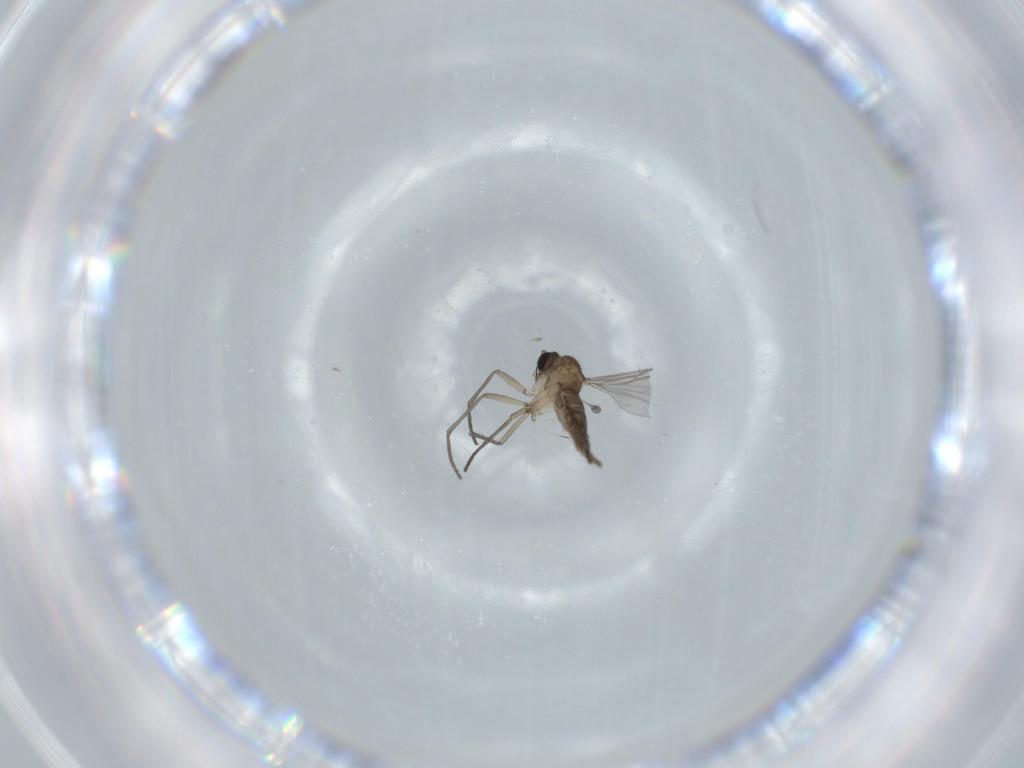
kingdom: Animalia
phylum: Arthropoda
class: Insecta
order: Diptera
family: Sciaridae
